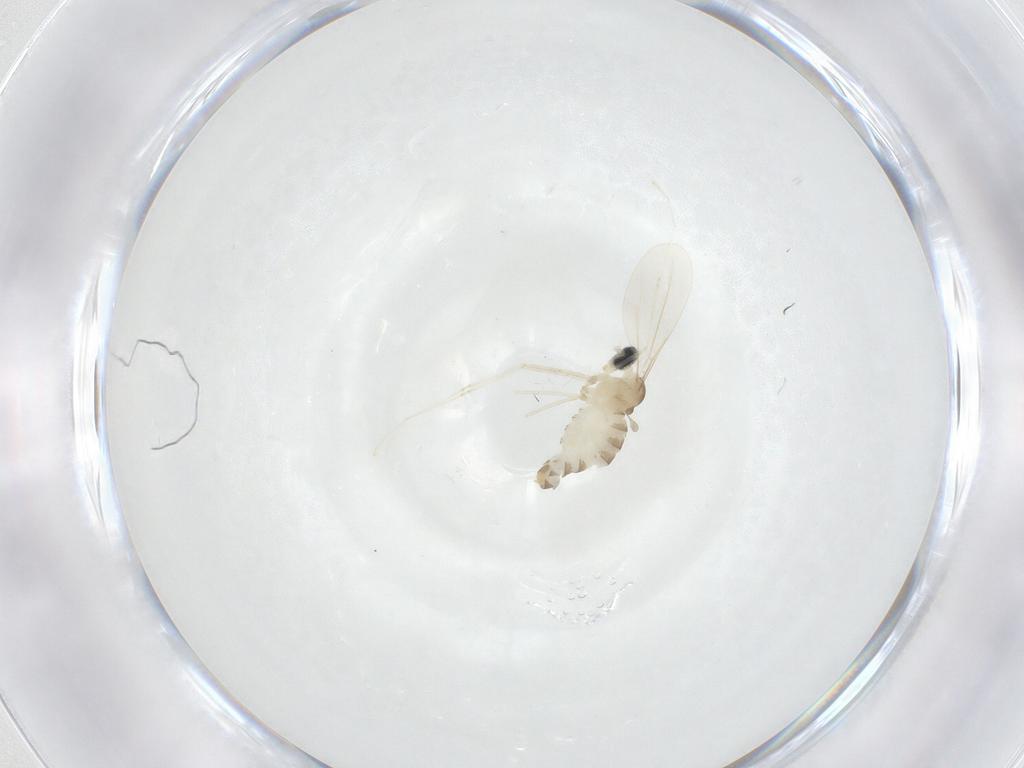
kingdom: Animalia
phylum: Arthropoda
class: Insecta
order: Diptera
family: Cecidomyiidae
